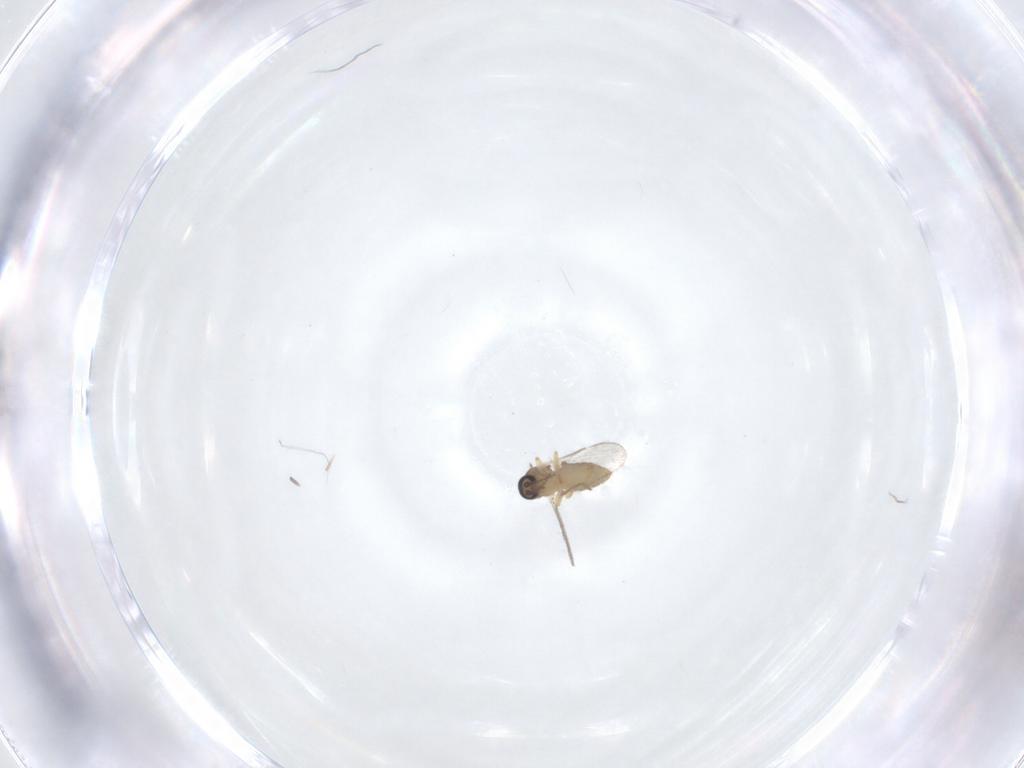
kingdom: Animalia
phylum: Arthropoda
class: Insecta
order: Diptera
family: Ceratopogonidae
